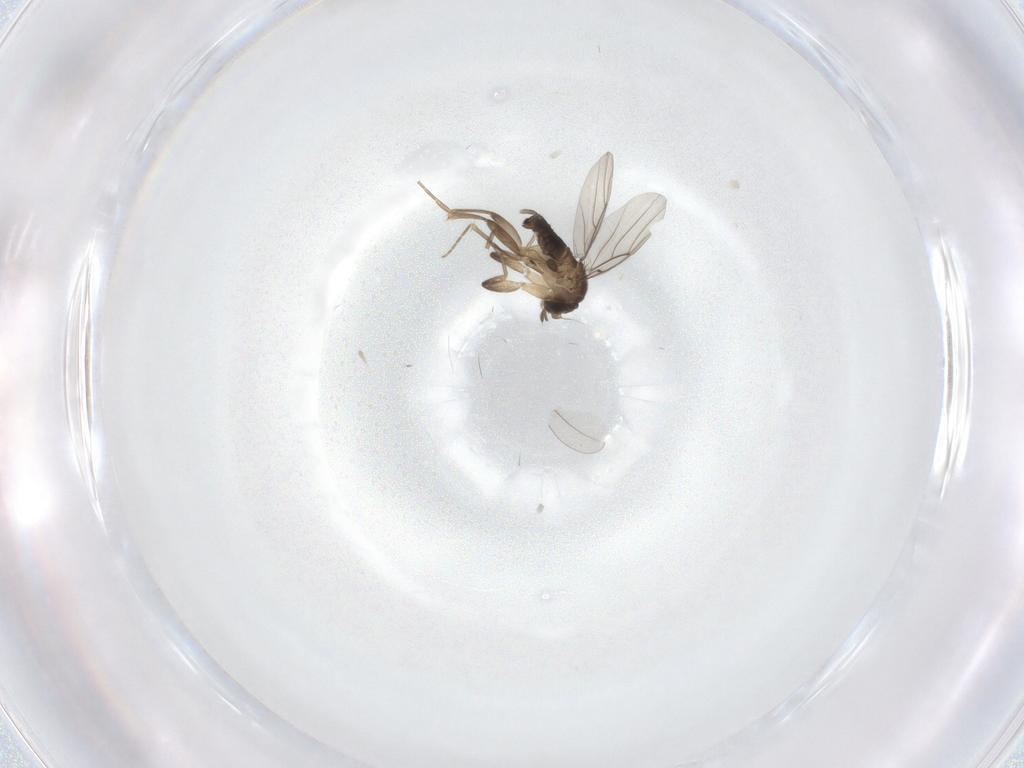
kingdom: Animalia
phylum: Arthropoda
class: Insecta
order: Diptera
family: Phoridae
